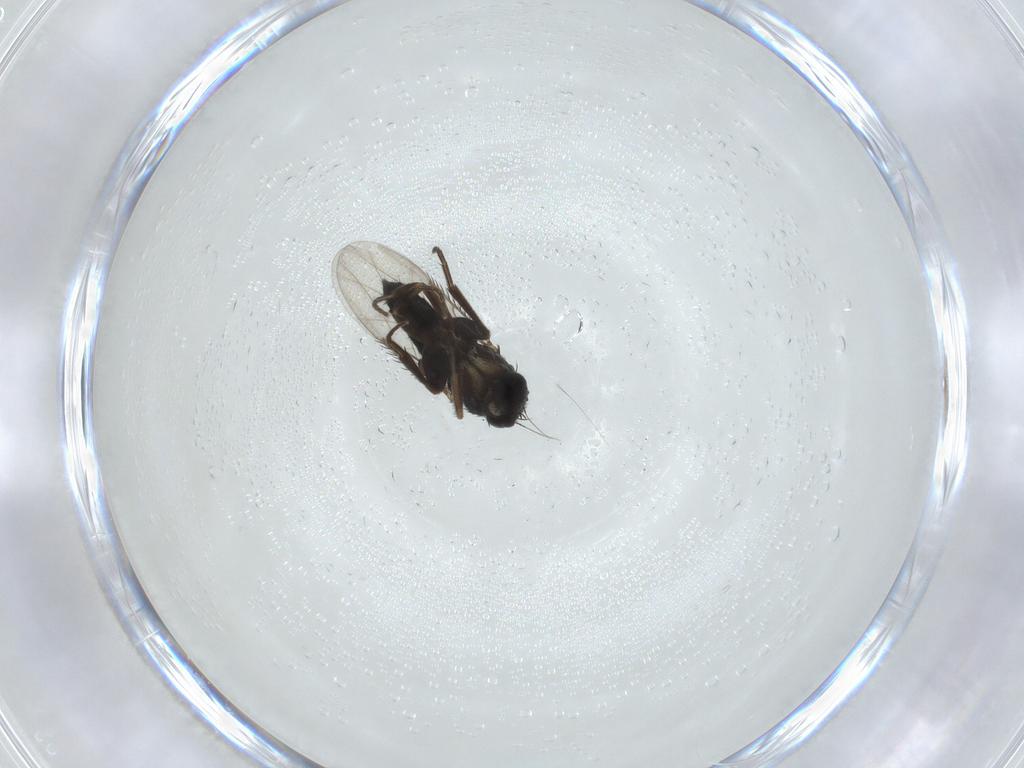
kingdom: Animalia
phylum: Arthropoda
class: Insecta
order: Diptera
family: Phoridae
